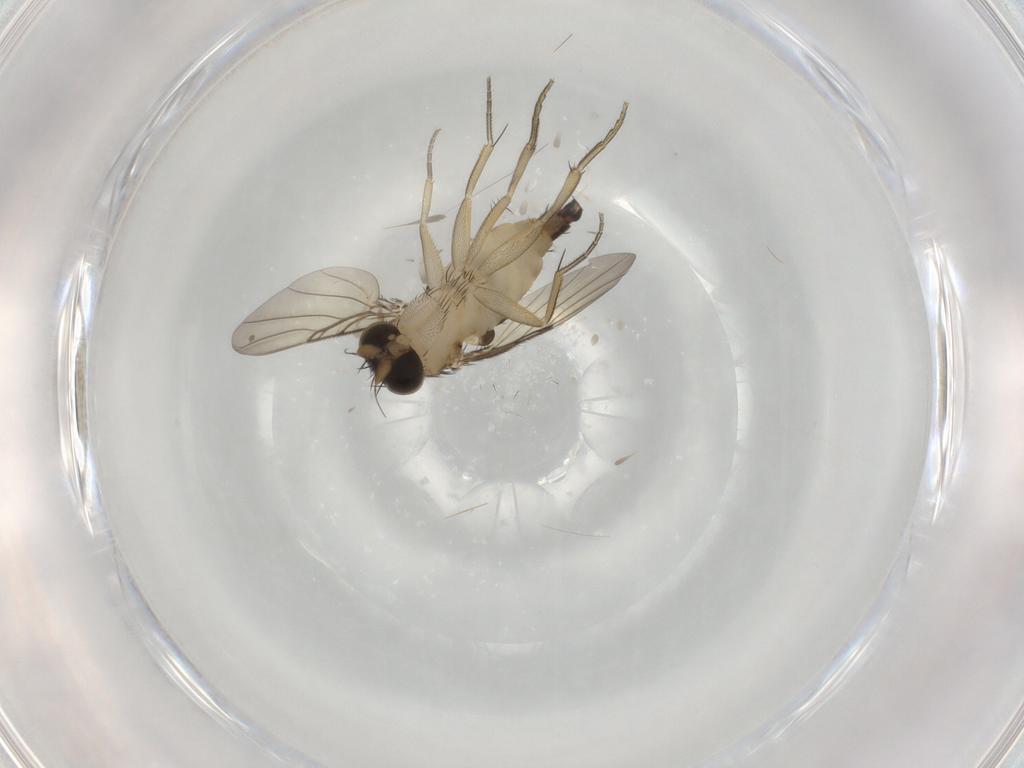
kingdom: Animalia
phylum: Arthropoda
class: Insecta
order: Diptera
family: Phoridae
